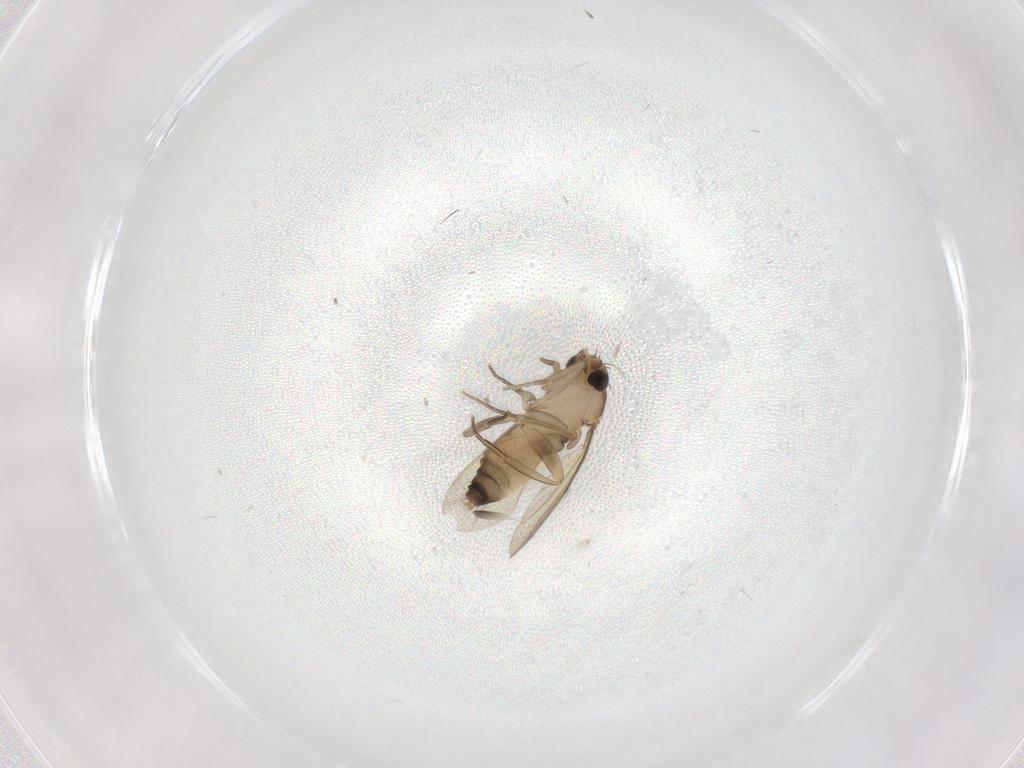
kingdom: Animalia
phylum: Arthropoda
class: Insecta
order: Diptera
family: Phoridae
